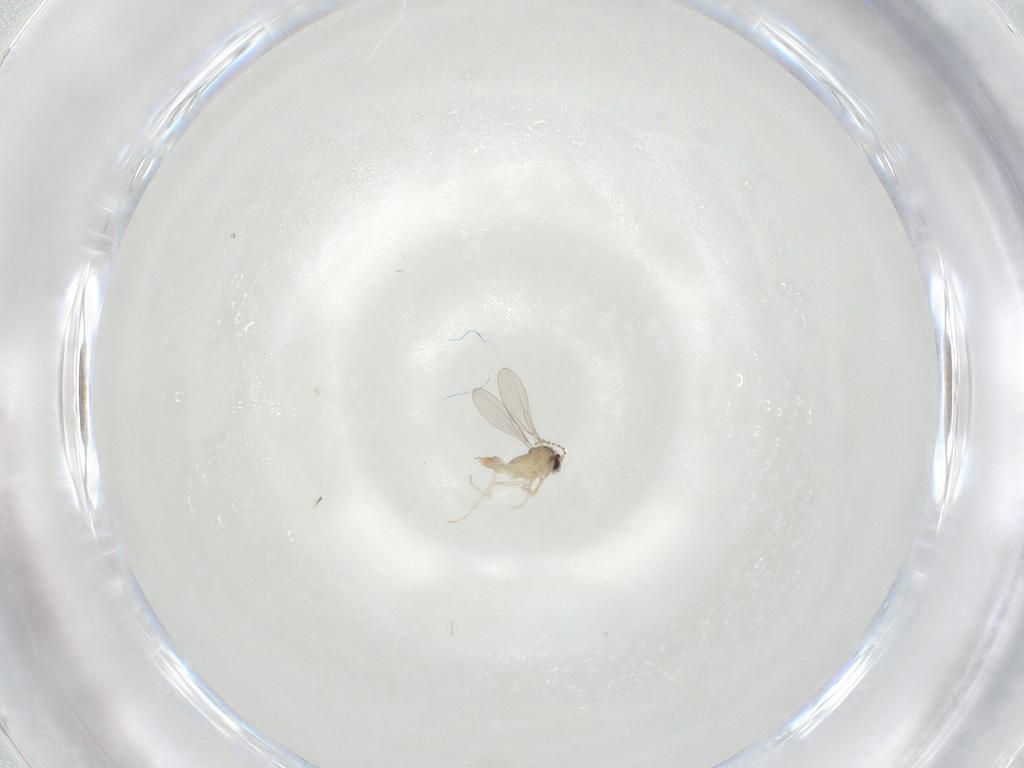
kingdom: Animalia
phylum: Arthropoda
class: Insecta
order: Diptera
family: Cecidomyiidae
